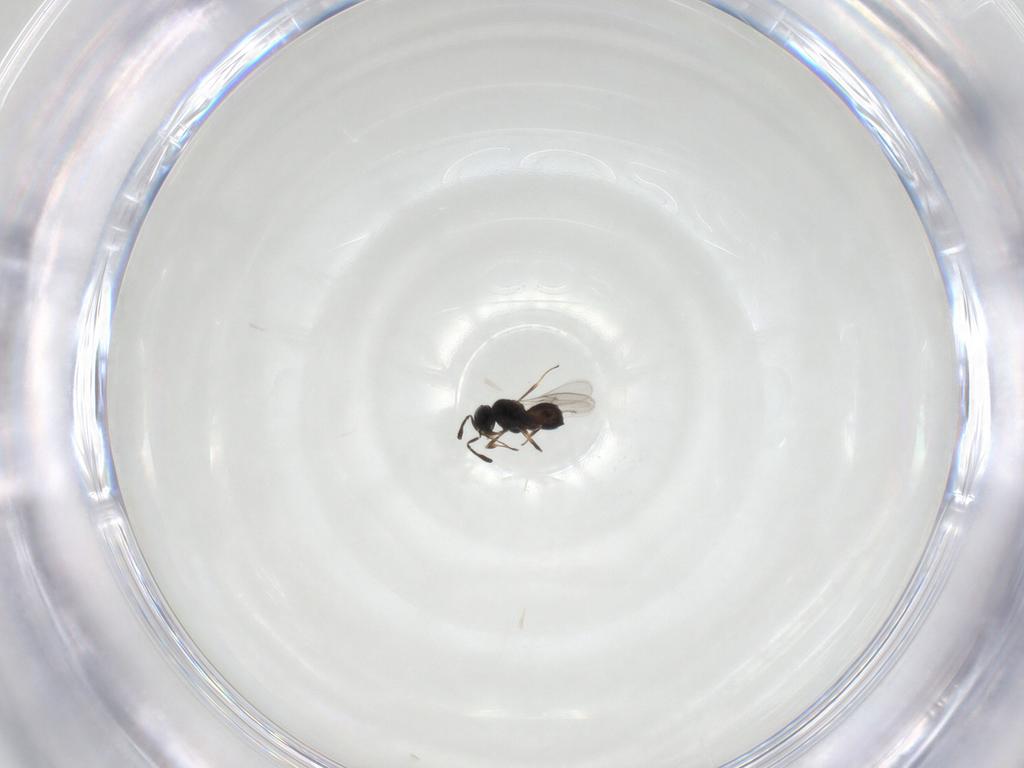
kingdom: Animalia
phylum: Arthropoda
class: Insecta
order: Hymenoptera
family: Scelionidae
